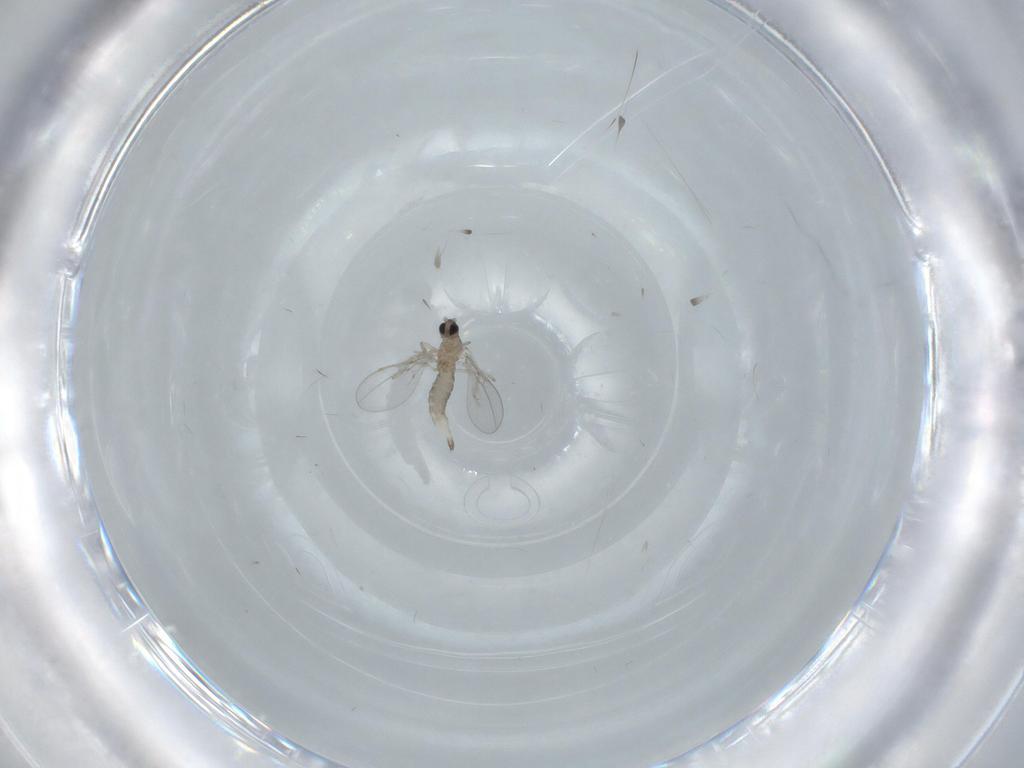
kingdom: Animalia
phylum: Arthropoda
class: Insecta
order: Diptera
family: Cecidomyiidae
